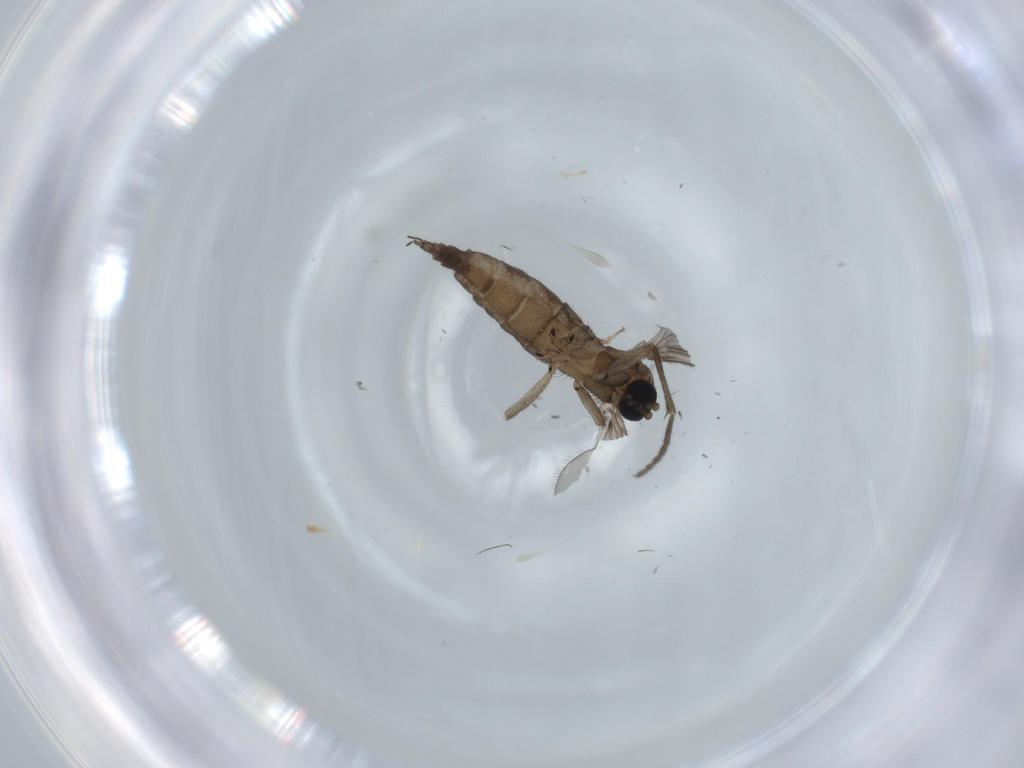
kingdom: Animalia
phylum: Arthropoda
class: Insecta
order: Diptera
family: Sciaridae
